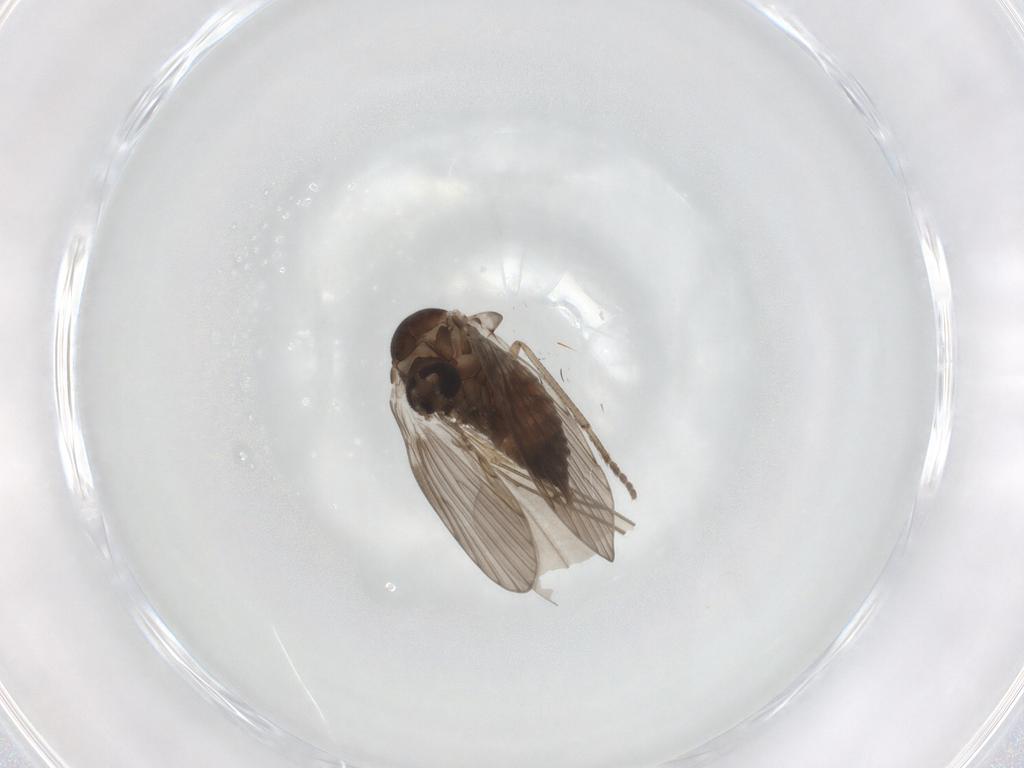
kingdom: Animalia
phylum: Arthropoda
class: Insecta
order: Diptera
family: Psychodidae
